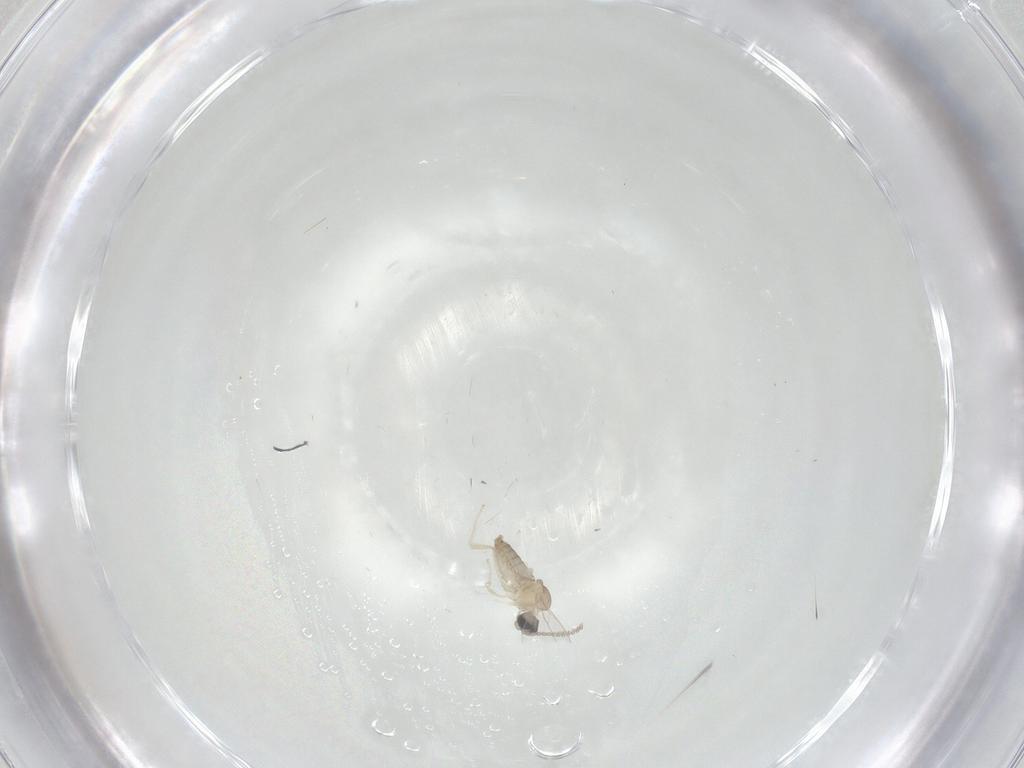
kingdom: Animalia
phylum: Arthropoda
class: Insecta
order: Diptera
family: Cecidomyiidae
